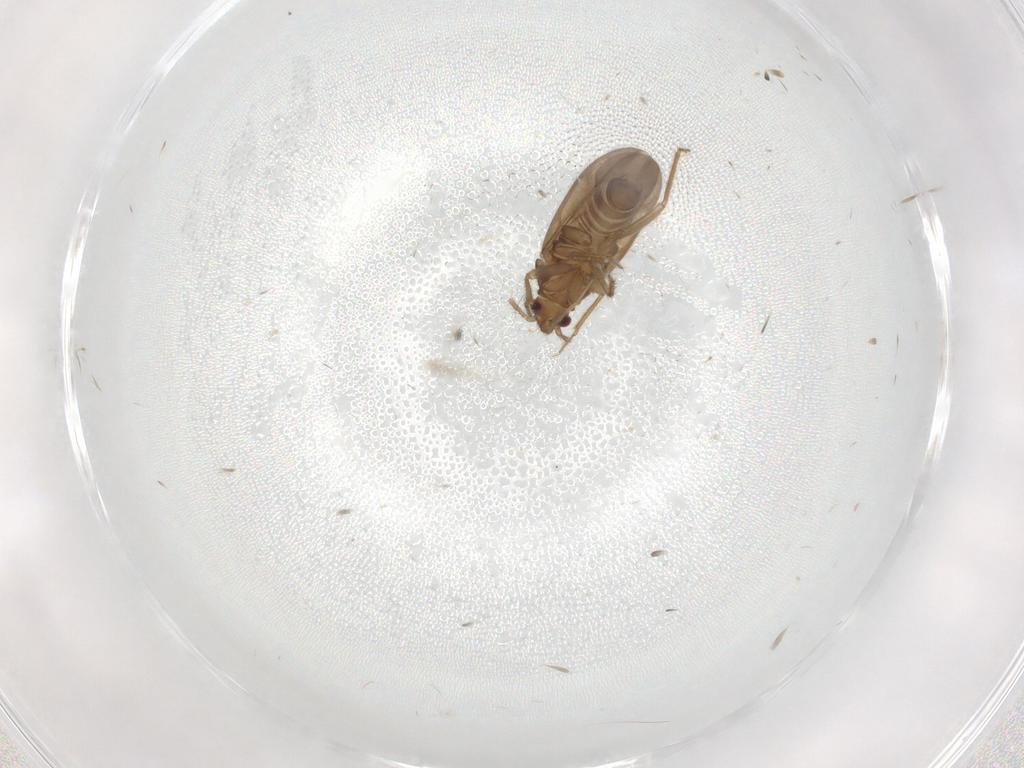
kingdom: Animalia
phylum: Arthropoda
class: Insecta
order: Hemiptera
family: Ceratocombidae
